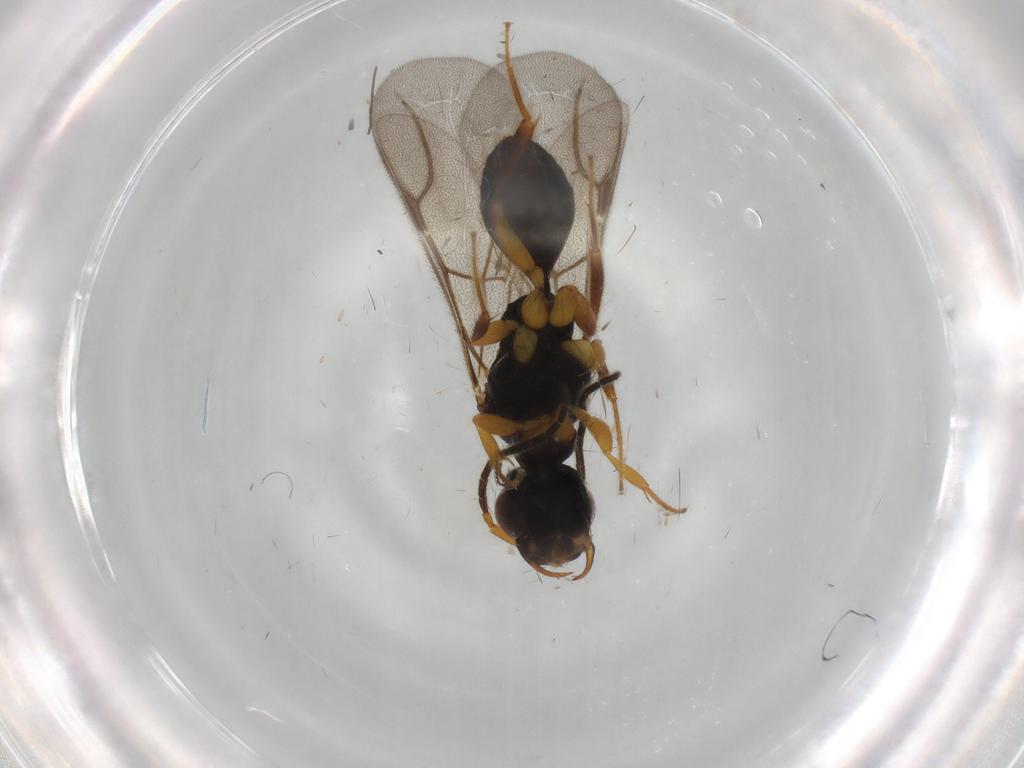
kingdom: Animalia
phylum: Arthropoda
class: Insecta
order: Hymenoptera
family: Bethylidae
